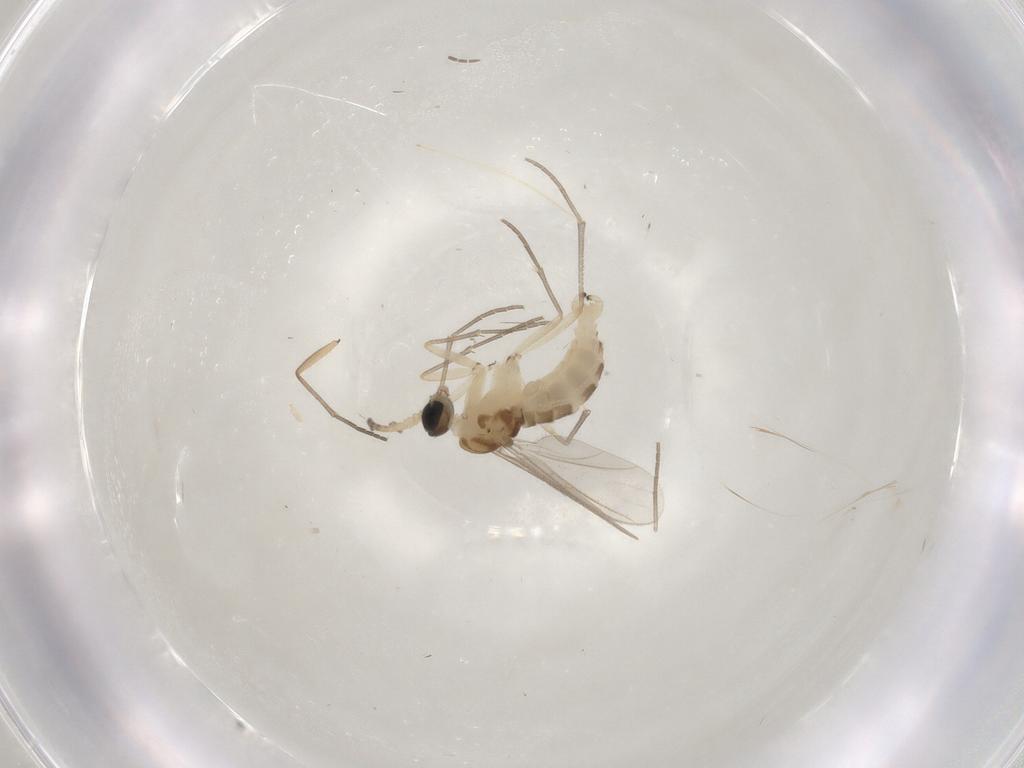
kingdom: Animalia
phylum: Arthropoda
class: Insecta
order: Diptera
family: Sciaridae
